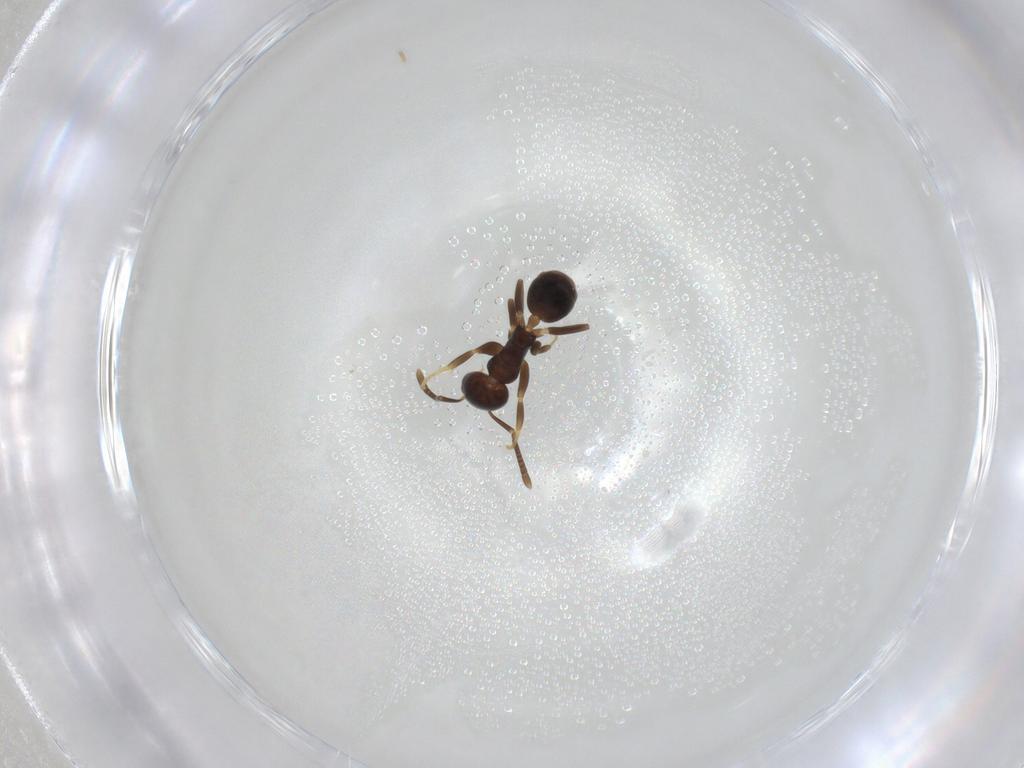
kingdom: Animalia
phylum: Arthropoda
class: Insecta
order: Hymenoptera
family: Formicidae
